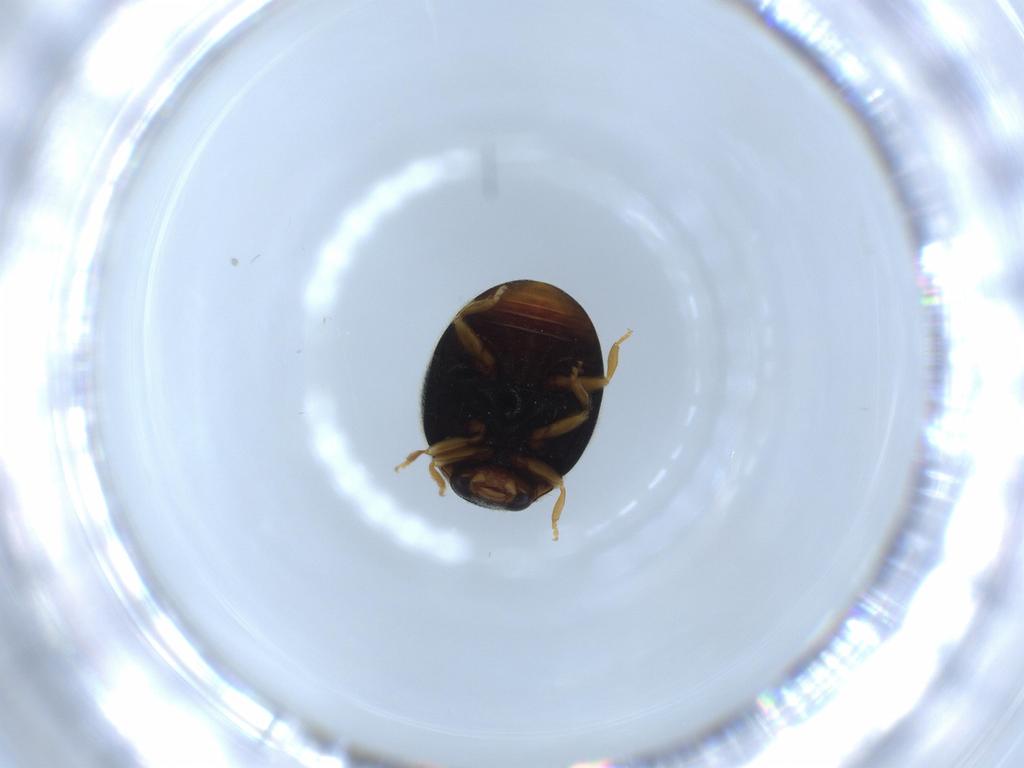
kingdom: Animalia
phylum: Arthropoda
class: Insecta
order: Coleoptera
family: Coccinellidae
